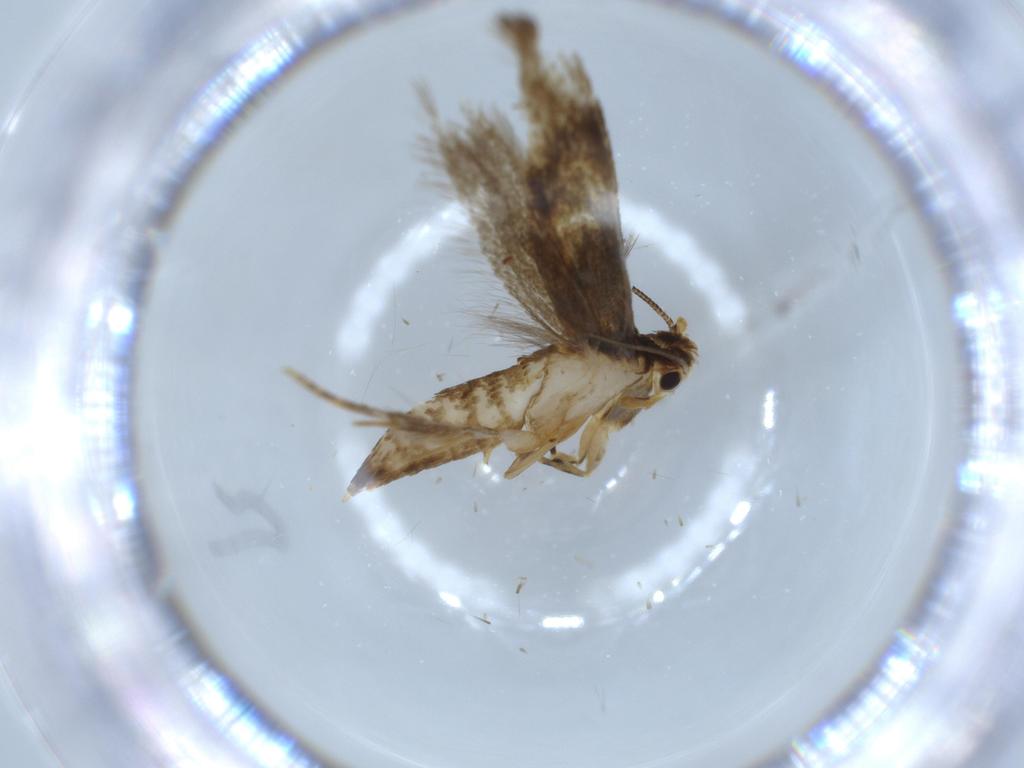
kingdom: Animalia
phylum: Arthropoda
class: Insecta
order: Lepidoptera
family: Tineidae
